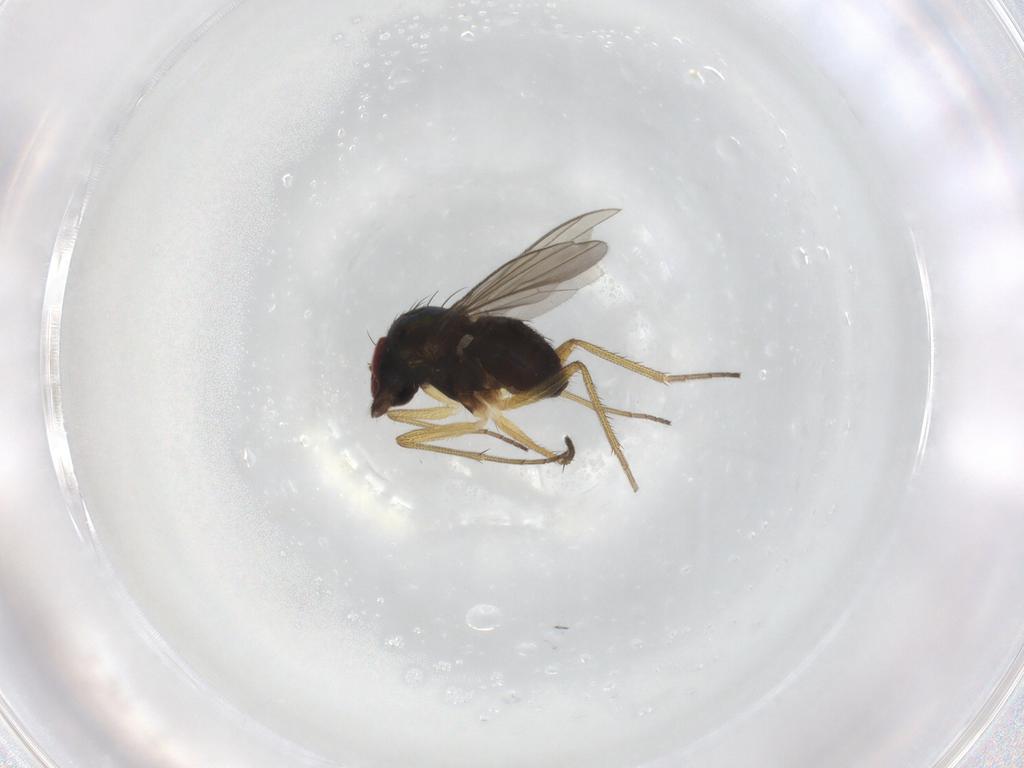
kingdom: Animalia
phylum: Arthropoda
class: Insecta
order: Diptera
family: Dolichopodidae
